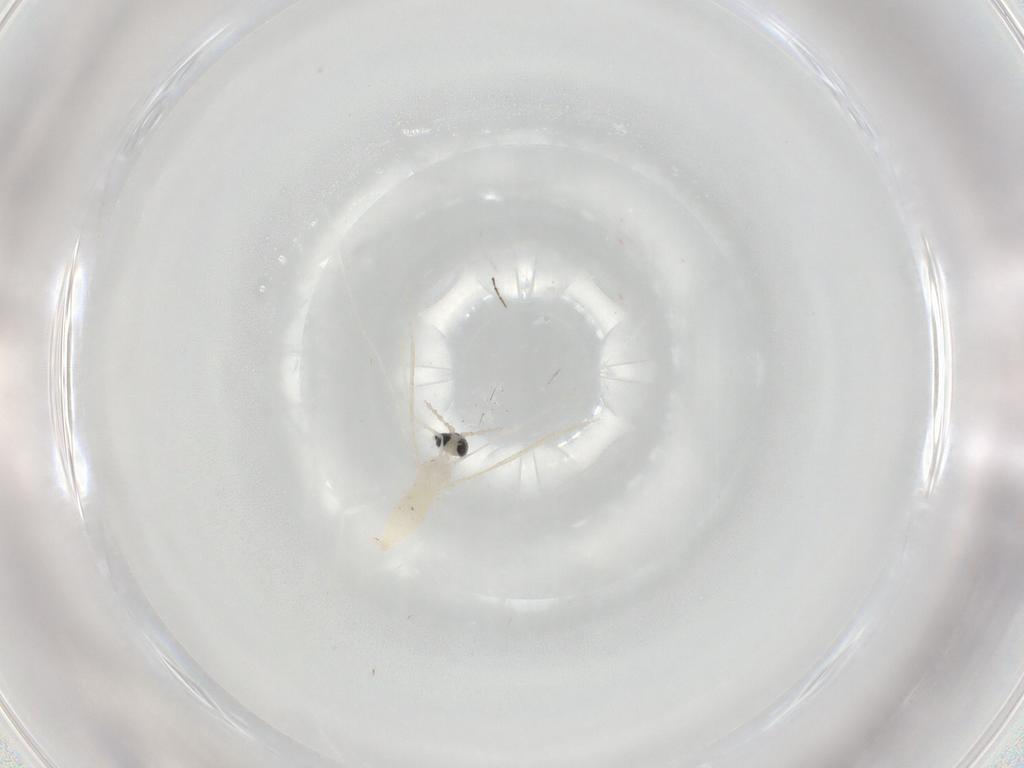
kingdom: Animalia
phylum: Arthropoda
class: Insecta
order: Diptera
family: Cecidomyiidae
